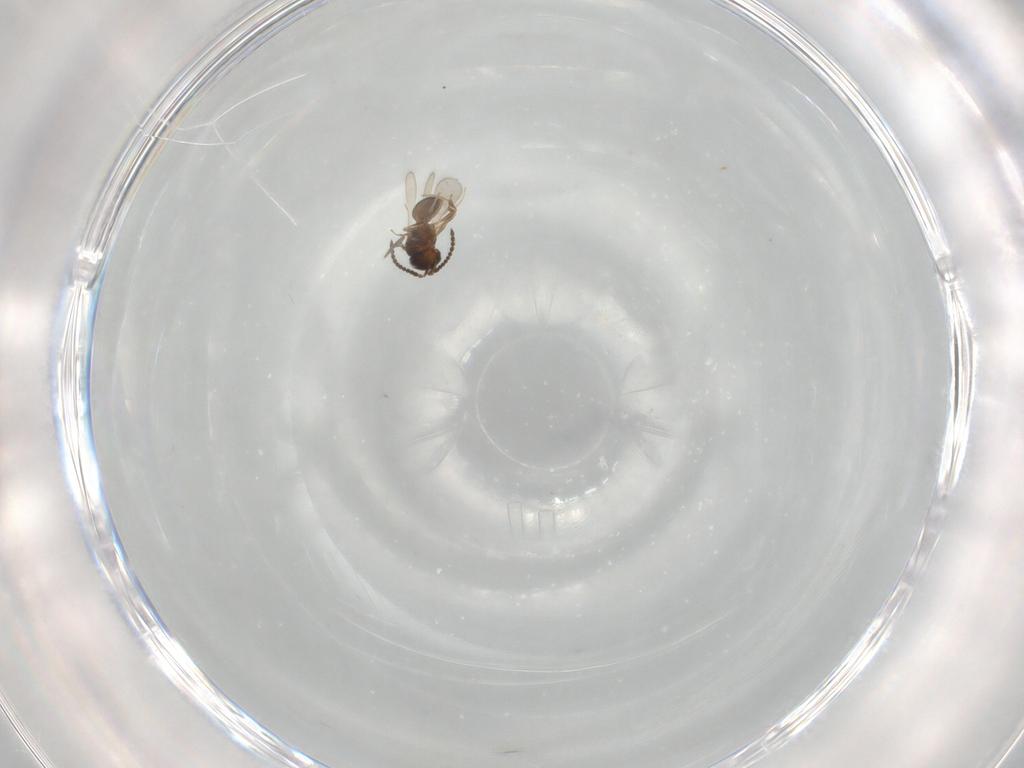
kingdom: Animalia
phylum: Arthropoda
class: Insecta
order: Hymenoptera
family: Scelionidae
